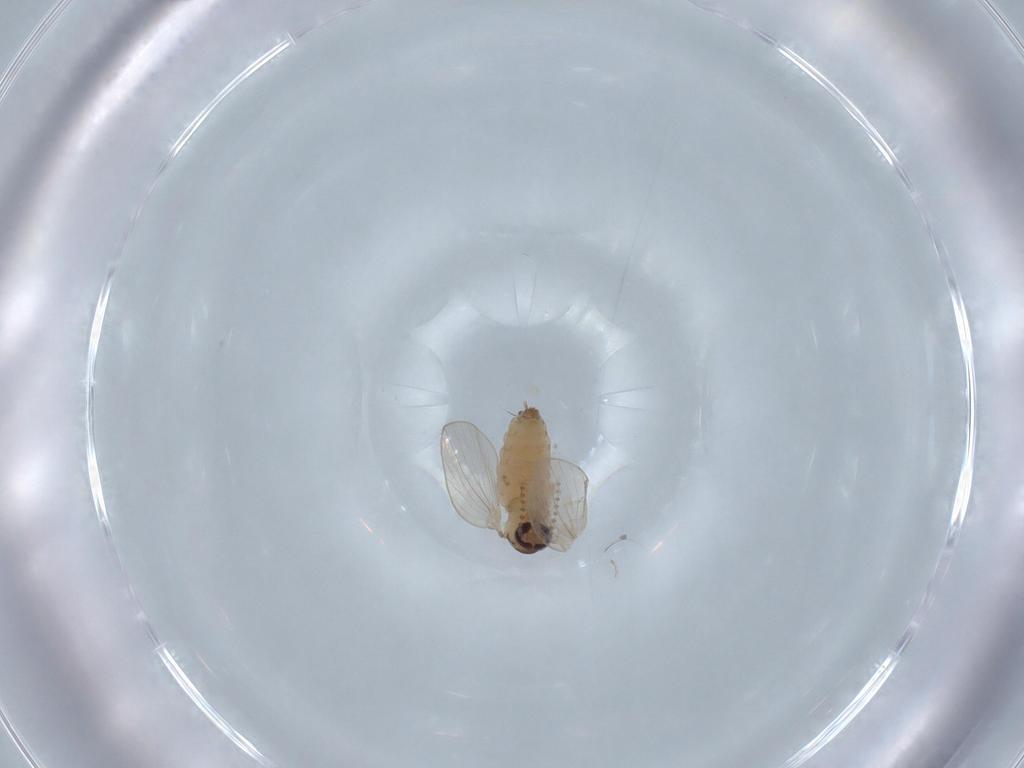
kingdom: Animalia
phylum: Arthropoda
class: Insecta
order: Diptera
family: Psychodidae
